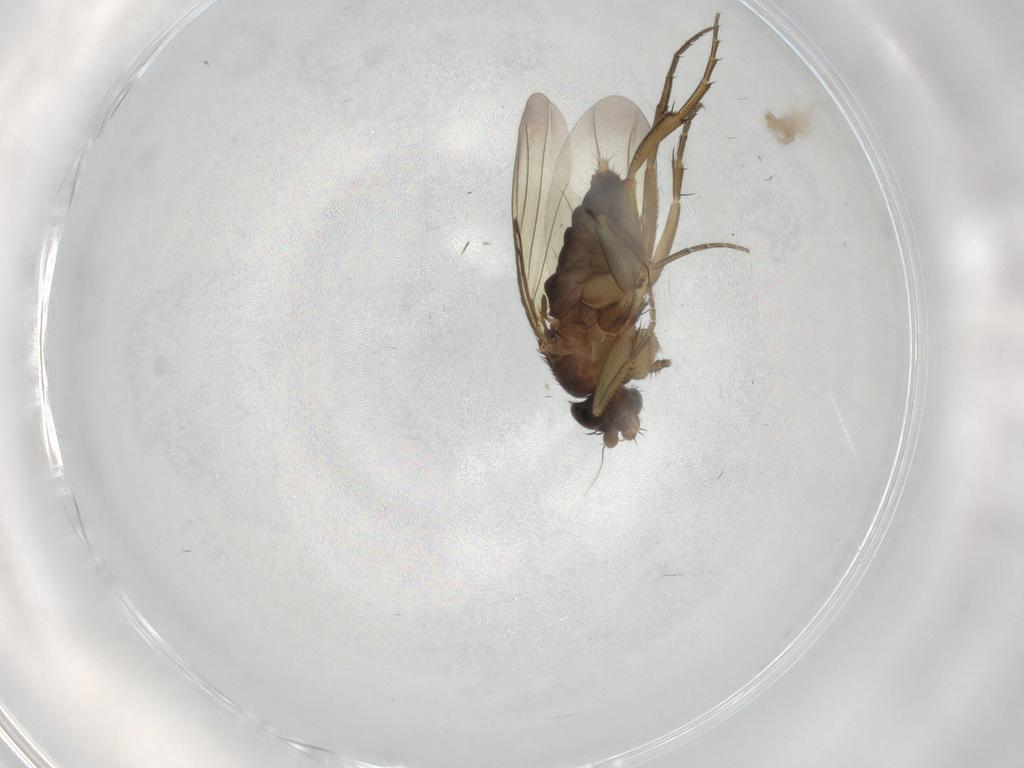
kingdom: Animalia
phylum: Arthropoda
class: Insecta
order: Diptera
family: Phoridae
